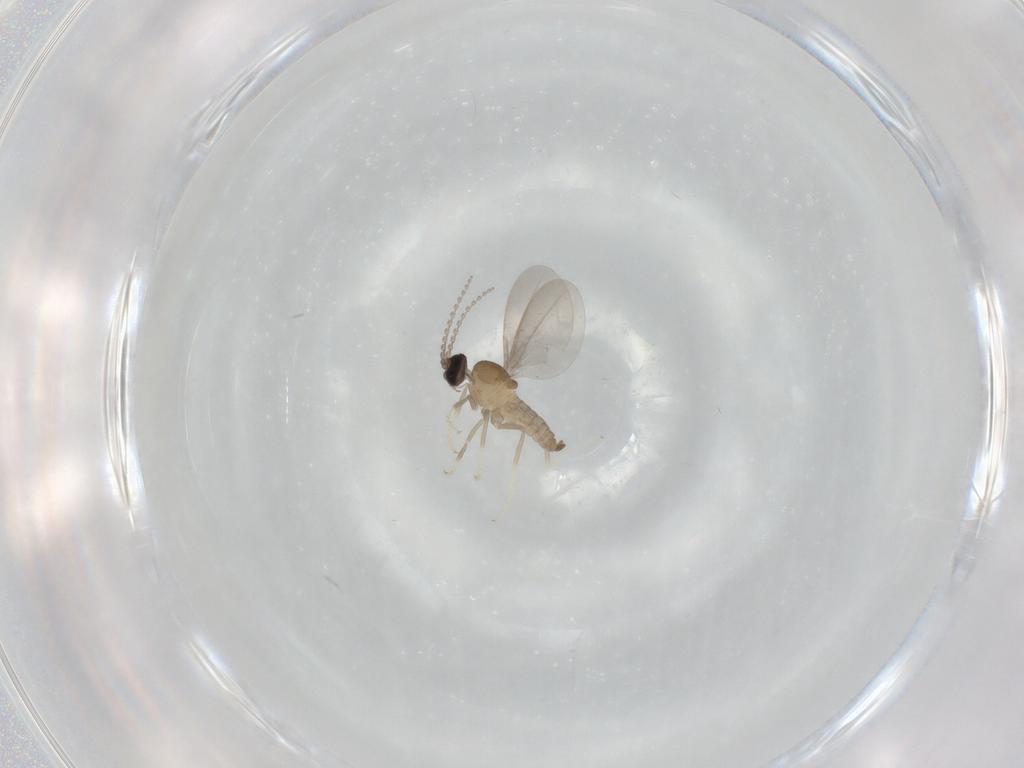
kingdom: Animalia
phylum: Arthropoda
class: Insecta
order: Diptera
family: Cecidomyiidae
